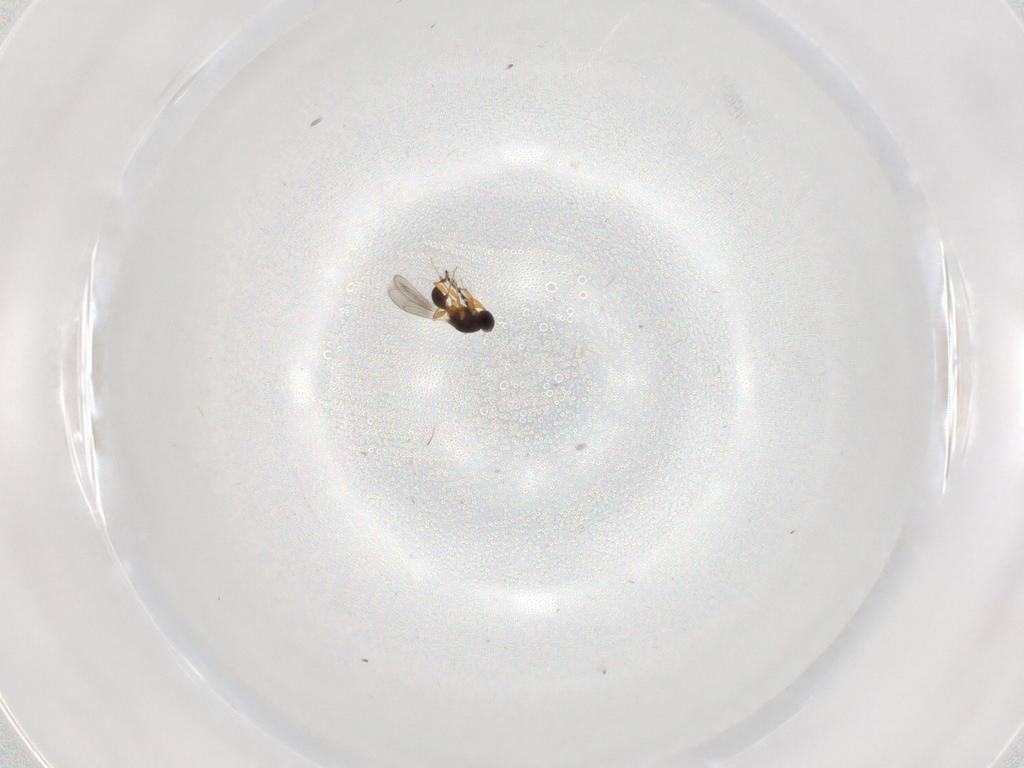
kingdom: Animalia
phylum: Arthropoda
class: Insecta
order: Hymenoptera
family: Platygastridae
